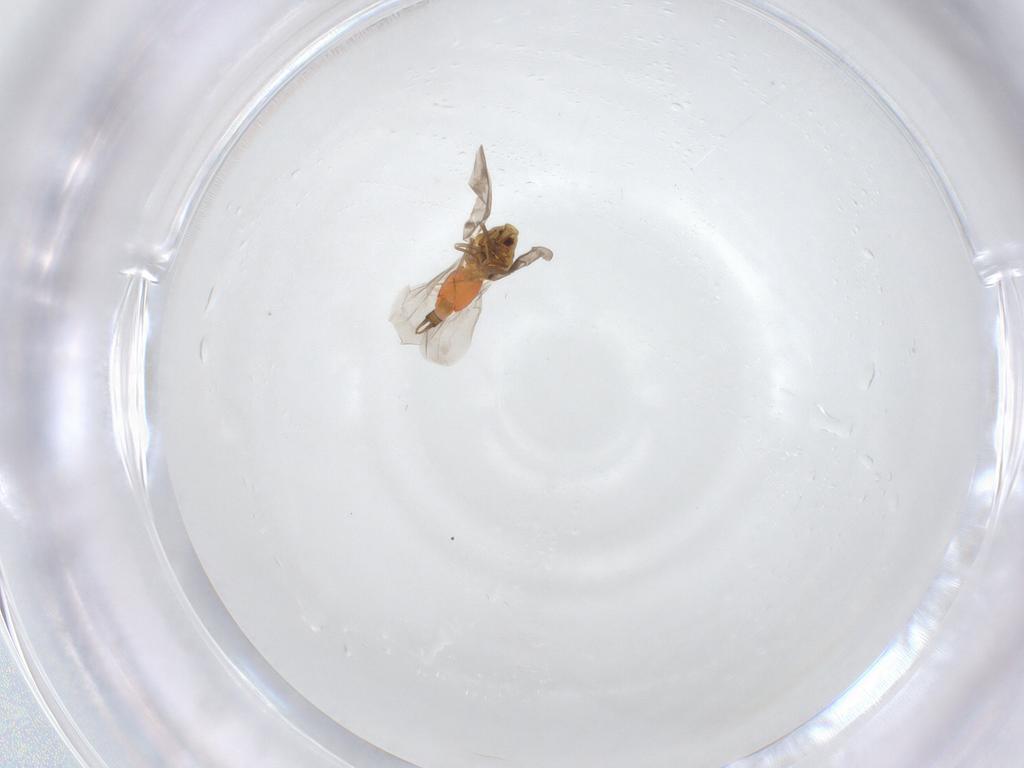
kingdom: Animalia
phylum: Arthropoda
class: Insecta
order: Hemiptera
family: Aleyrodidae
